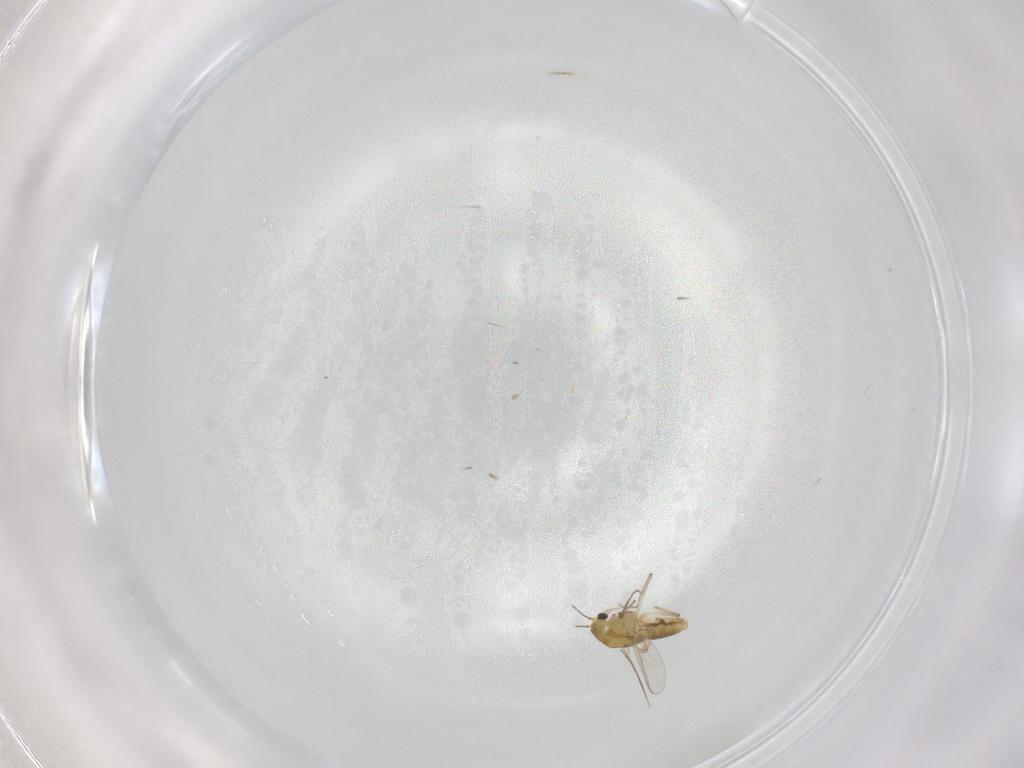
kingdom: Animalia
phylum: Arthropoda
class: Insecta
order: Diptera
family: Chironomidae
